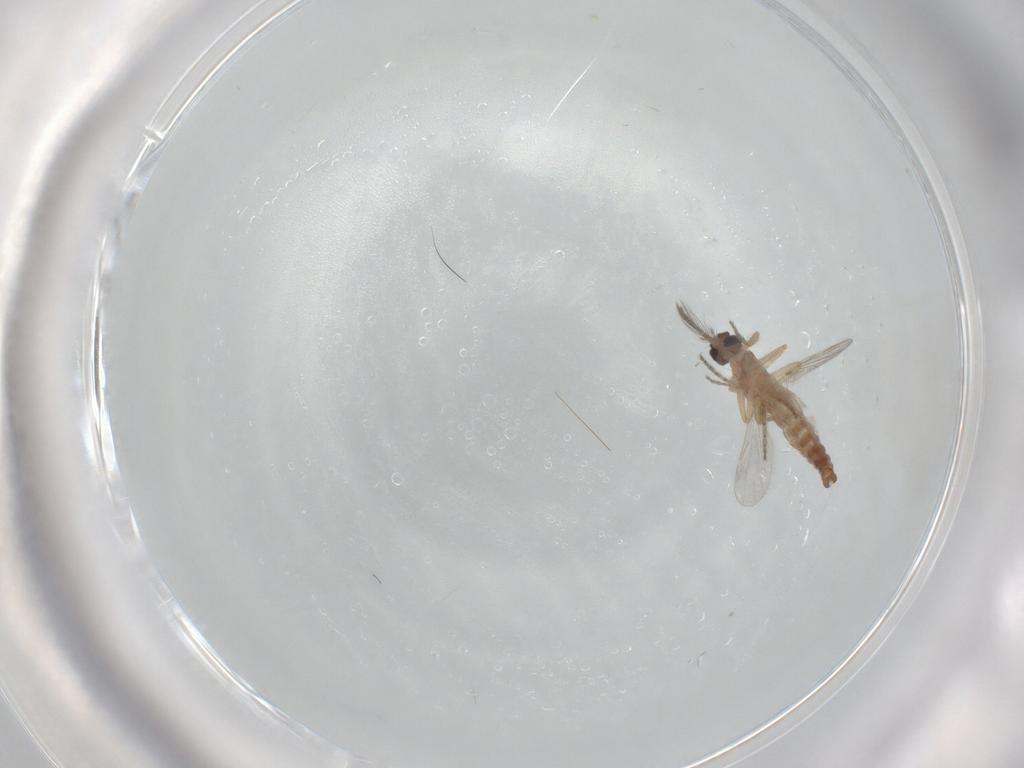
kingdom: Animalia
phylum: Arthropoda
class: Insecta
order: Diptera
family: Ceratopogonidae
